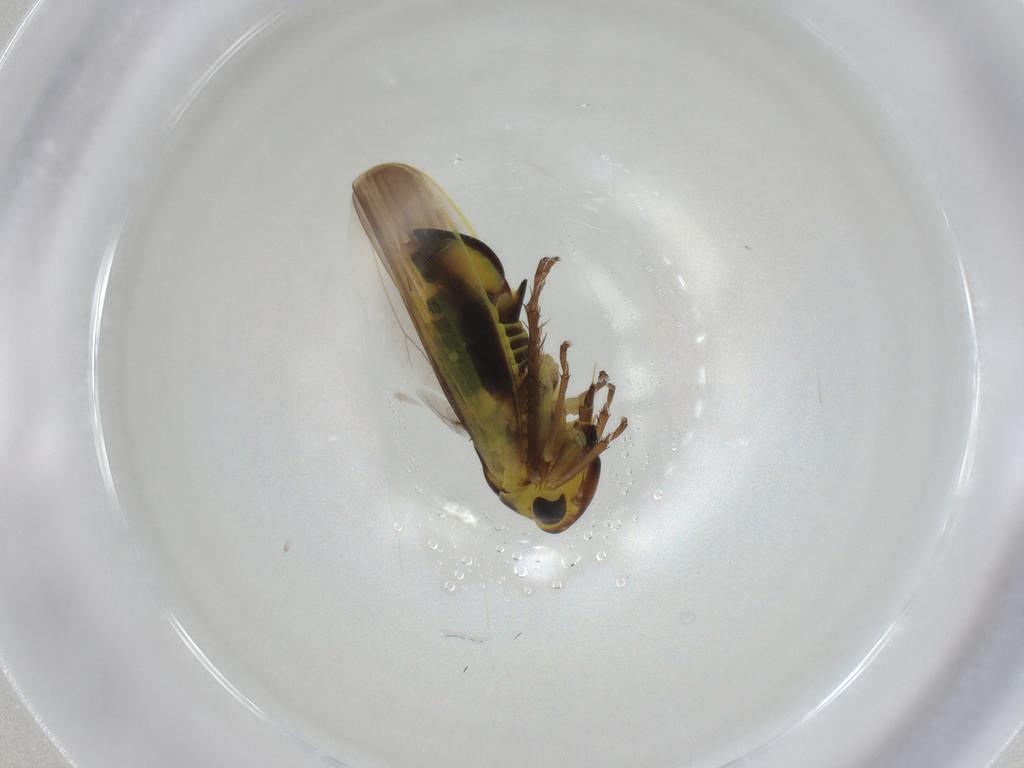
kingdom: Animalia
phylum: Arthropoda
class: Insecta
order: Hemiptera
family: Cicadellidae
